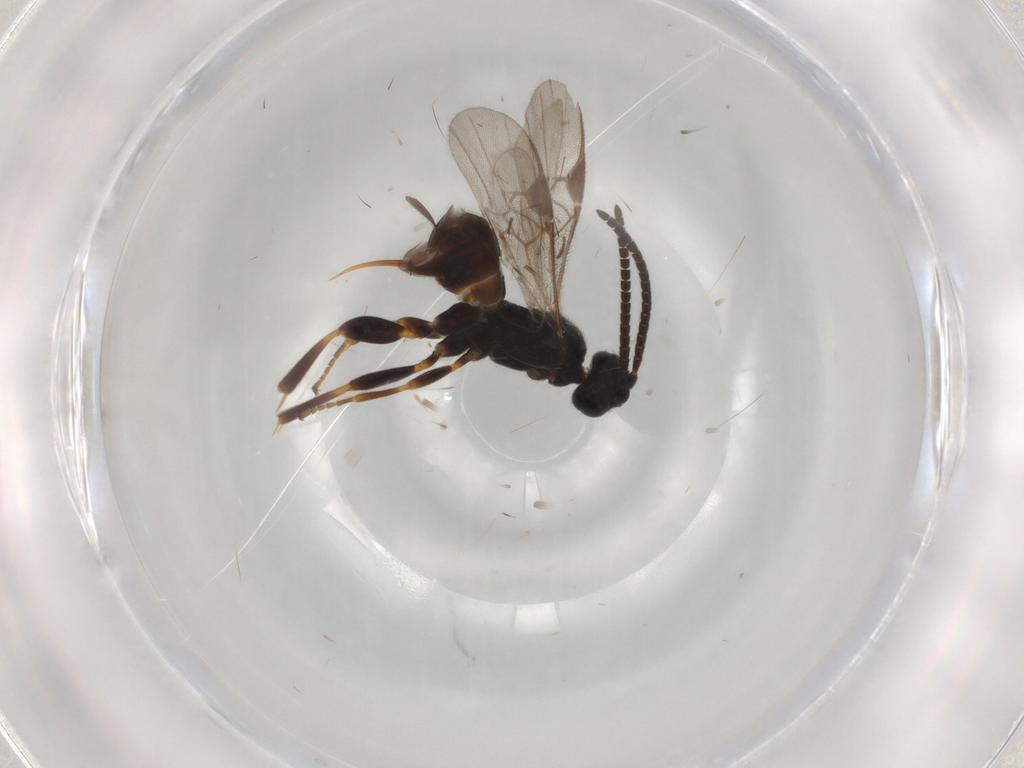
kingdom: Animalia
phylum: Arthropoda
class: Insecta
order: Hymenoptera
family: Braconidae
